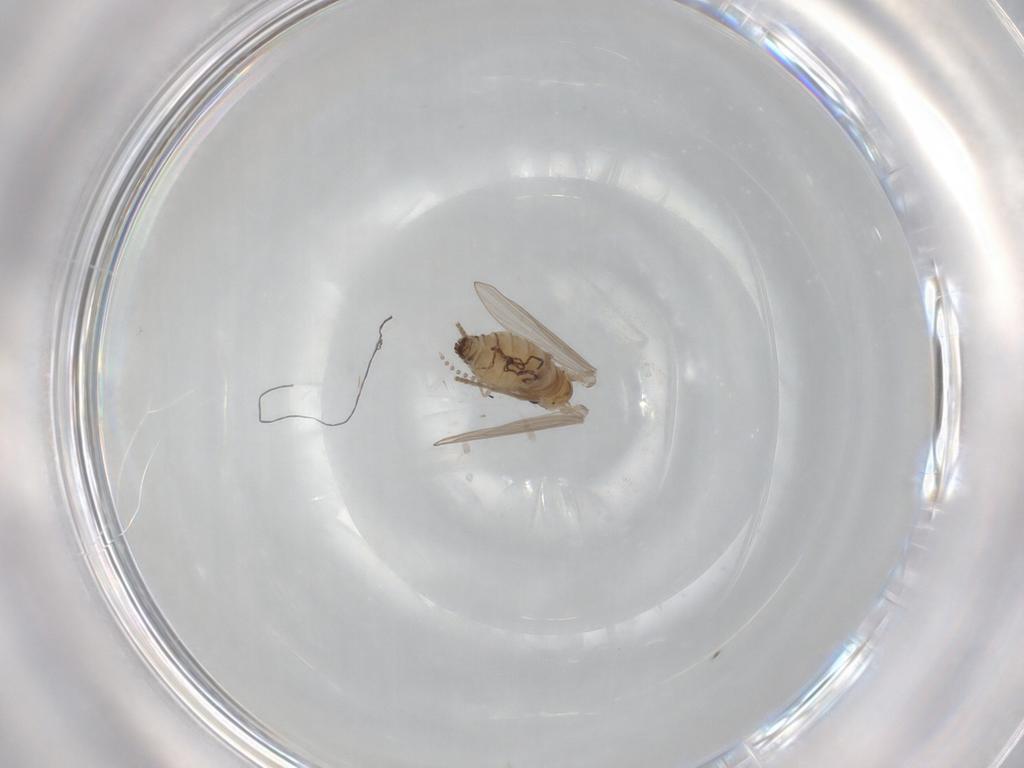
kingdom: Animalia
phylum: Arthropoda
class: Insecta
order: Diptera
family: Psychodidae
